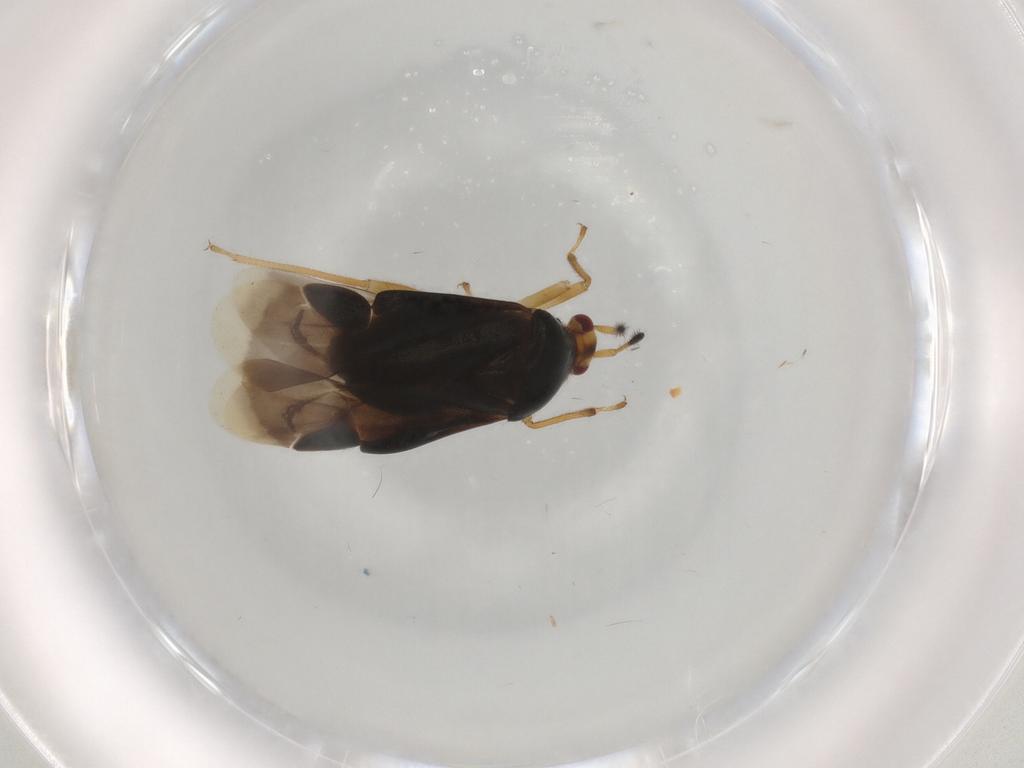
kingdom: Animalia
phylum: Arthropoda
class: Insecta
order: Hemiptera
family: Miridae
